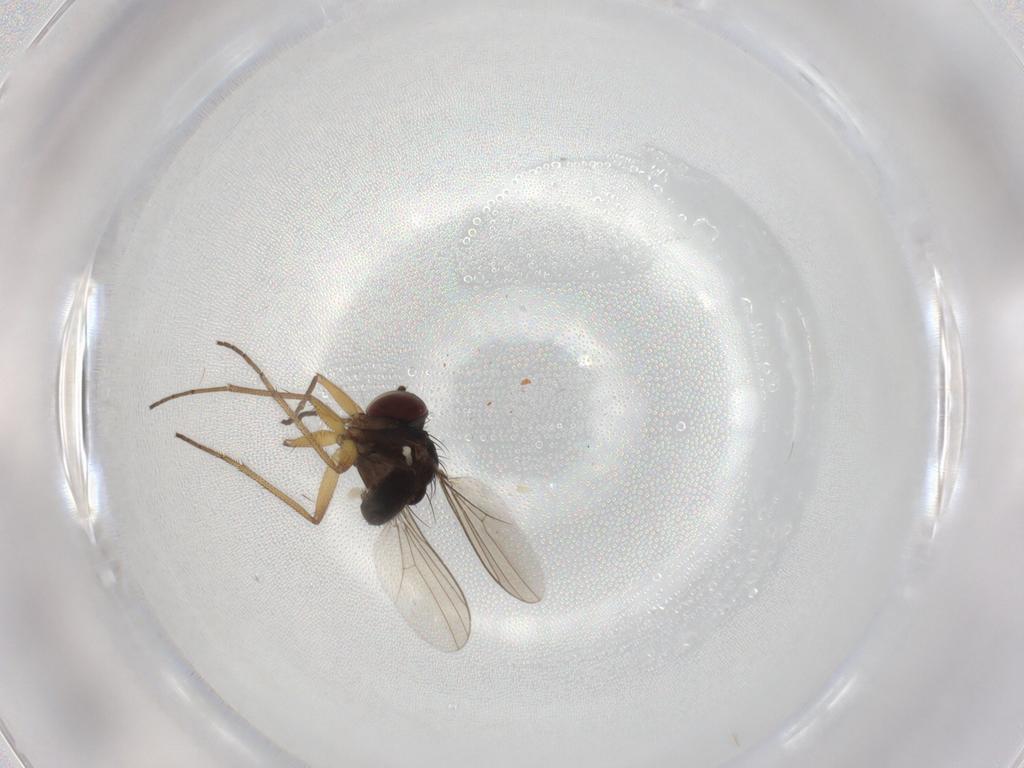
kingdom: Animalia
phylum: Arthropoda
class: Insecta
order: Diptera
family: Dolichopodidae
